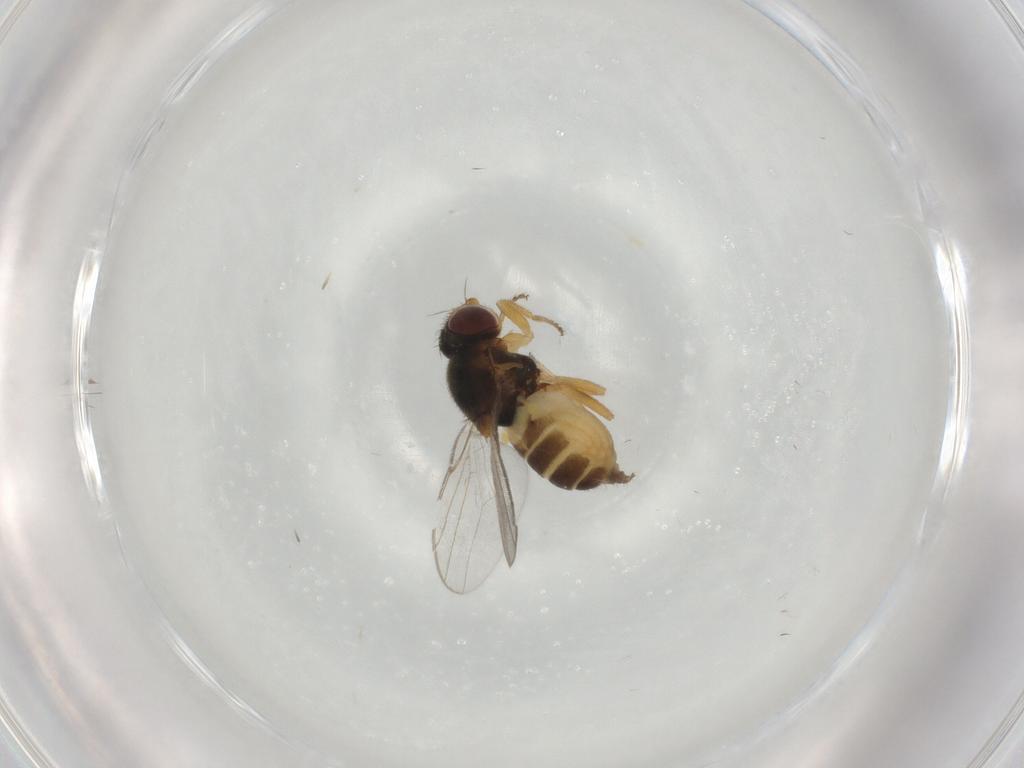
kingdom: Animalia
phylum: Arthropoda
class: Insecta
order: Diptera
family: Chloropidae
